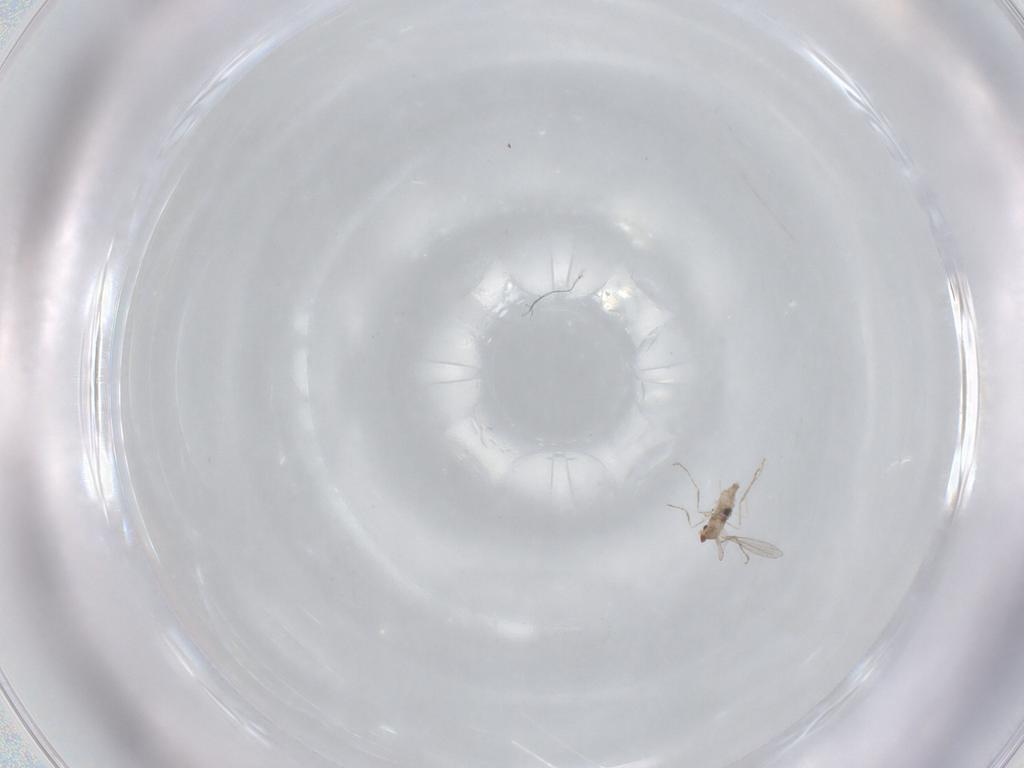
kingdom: Animalia
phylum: Arthropoda
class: Insecta
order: Diptera
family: Cecidomyiidae
